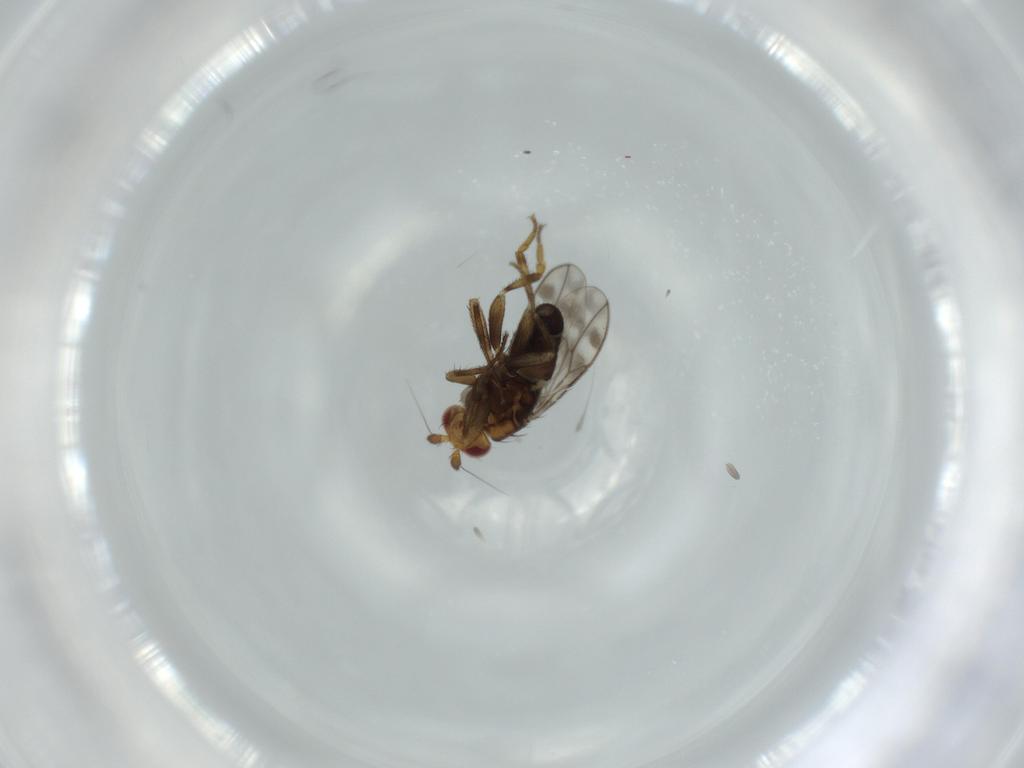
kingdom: Animalia
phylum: Arthropoda
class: Insecta
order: Diptera
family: Sphaeroceridae
